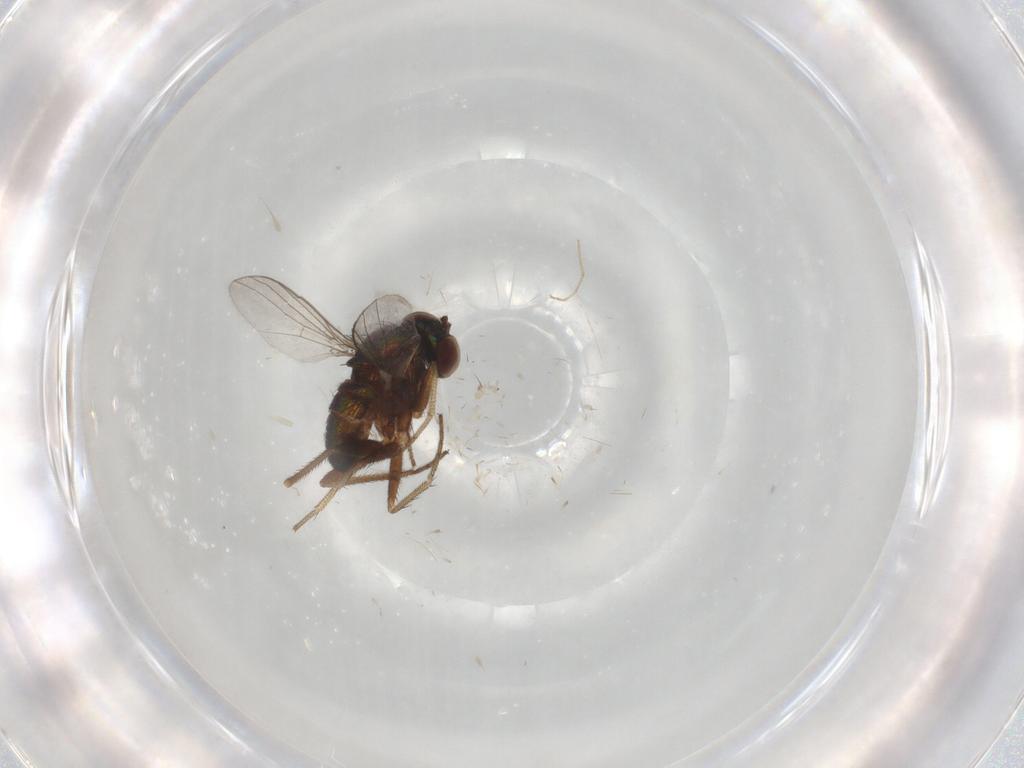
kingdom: Animalia
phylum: Arthropoda
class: Insecta
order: Diptera
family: Chironomidae
